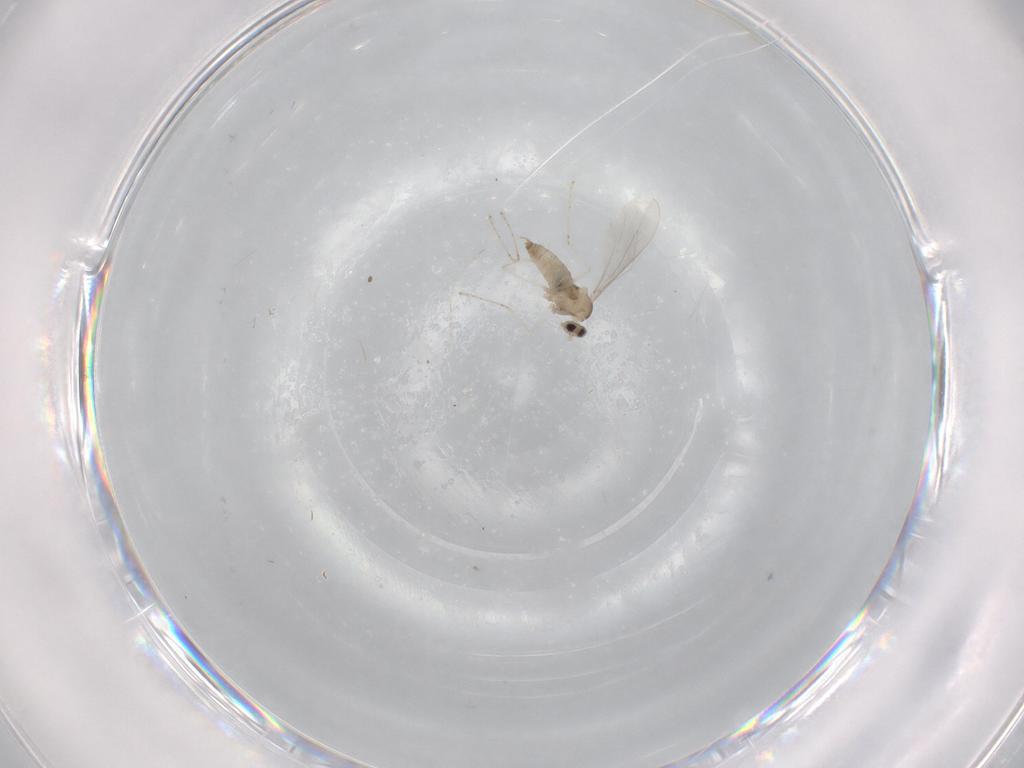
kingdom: Animalia
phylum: Arthropoda
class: Insecta
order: Diptera
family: Cecidomyiidae
